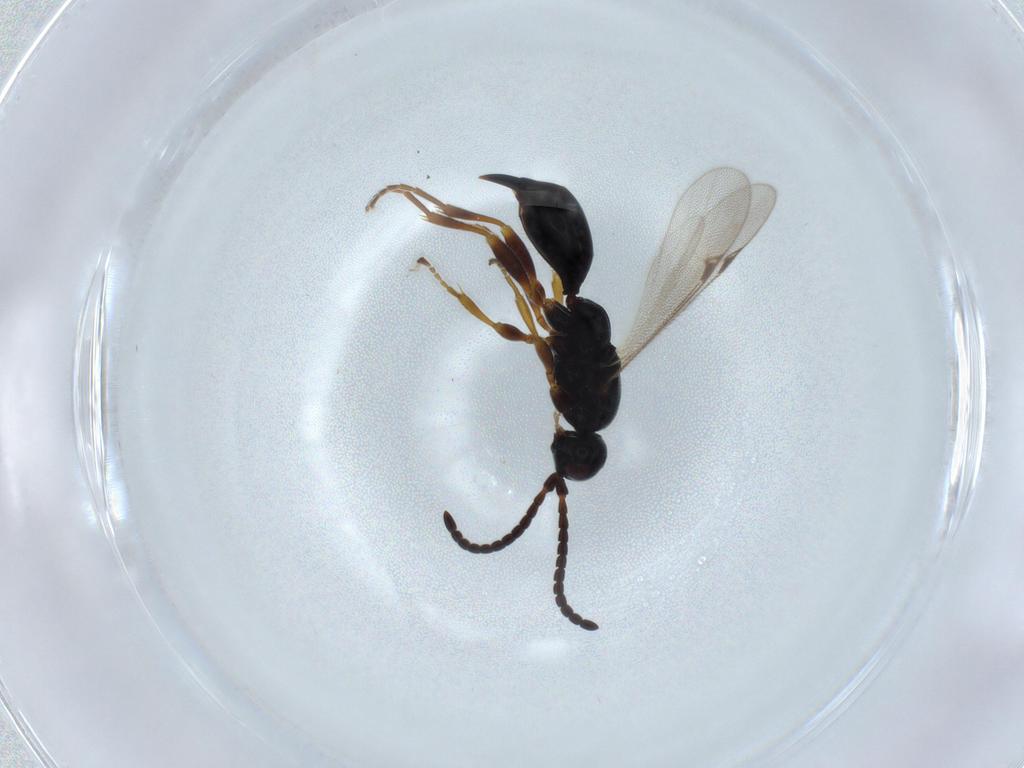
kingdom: Animalia
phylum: Arthropoda
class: Insecta
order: Hymenoptera
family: Proctotrupidae
